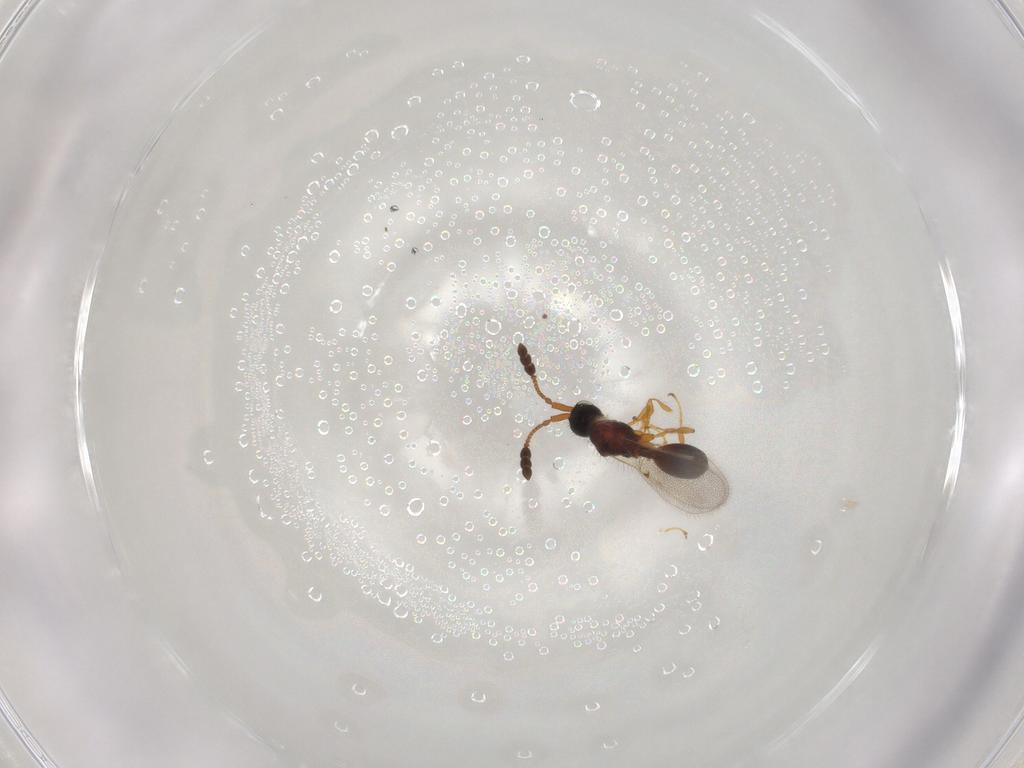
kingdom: Animalia
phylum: Arthropoda
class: Insecta
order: Hymenoptera
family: Diapriidae
